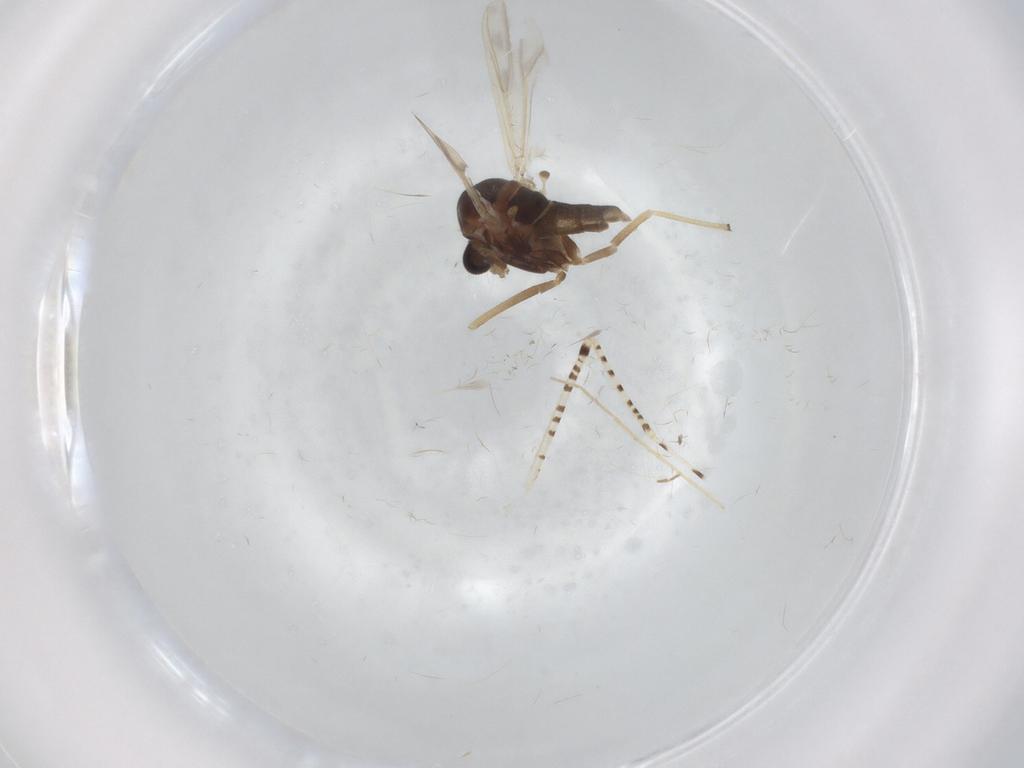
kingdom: Animalia
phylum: Arthropoda
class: Insecta
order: Diptera
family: Chironomidae
